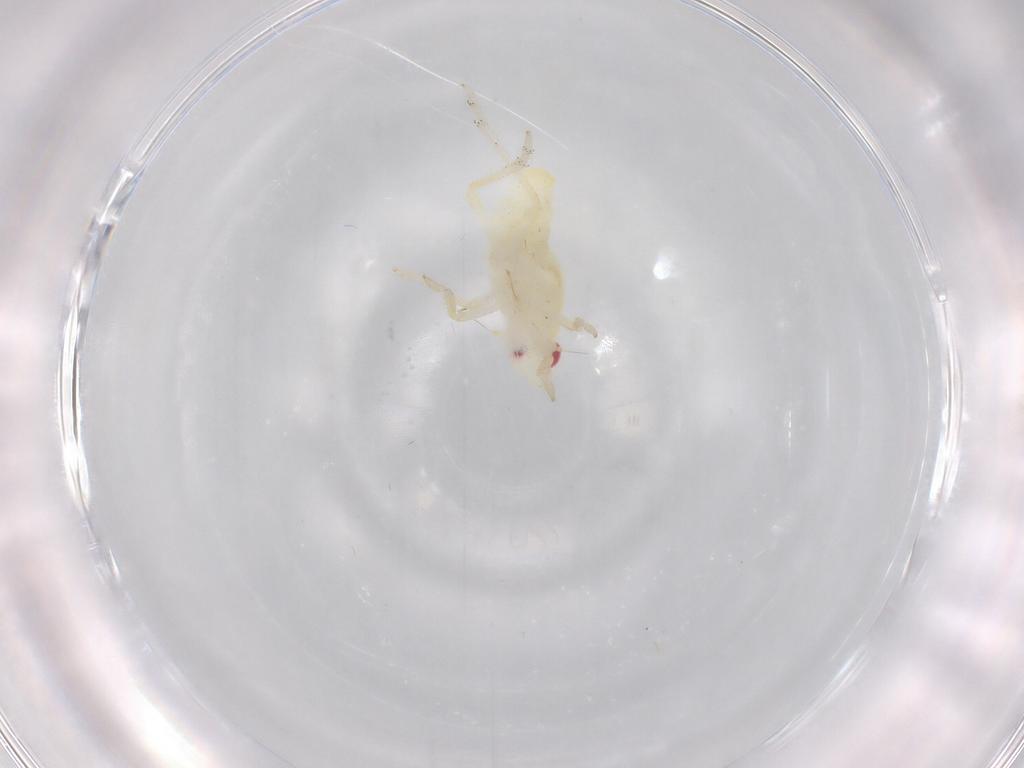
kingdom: Animalia
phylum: Arthropoda
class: Insecta
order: Hemiptera
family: Fulgoroidea_incertae_sedis
